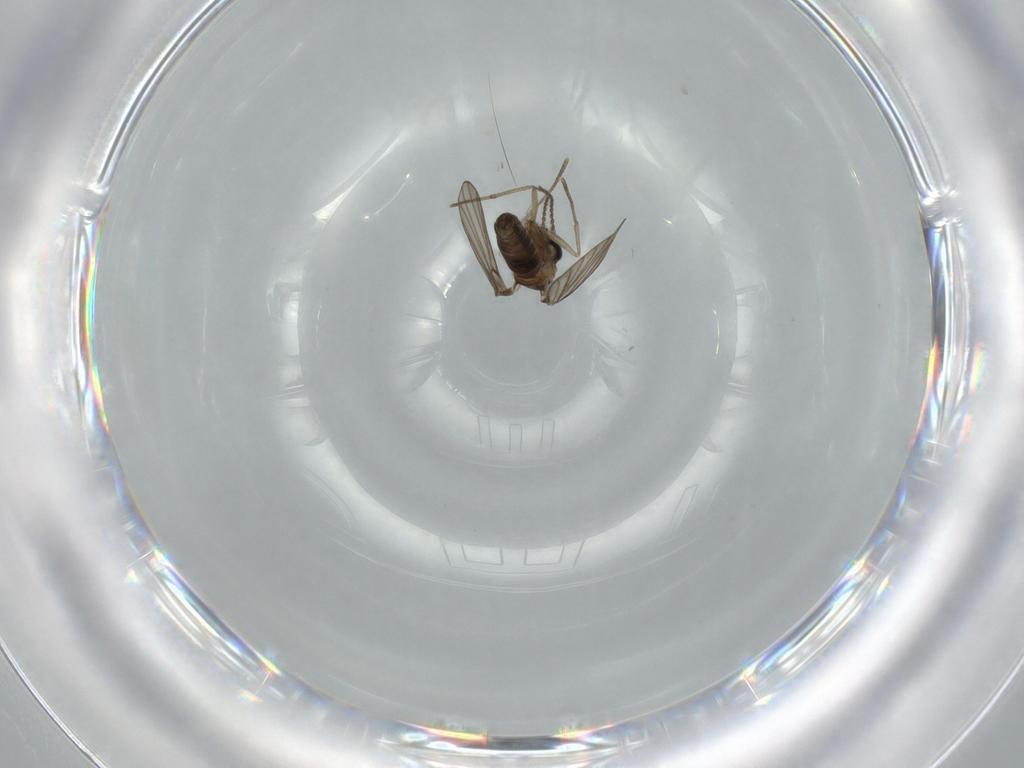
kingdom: Animalia
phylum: Arthropoda
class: Insecta
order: Diptera
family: Psychodidae
